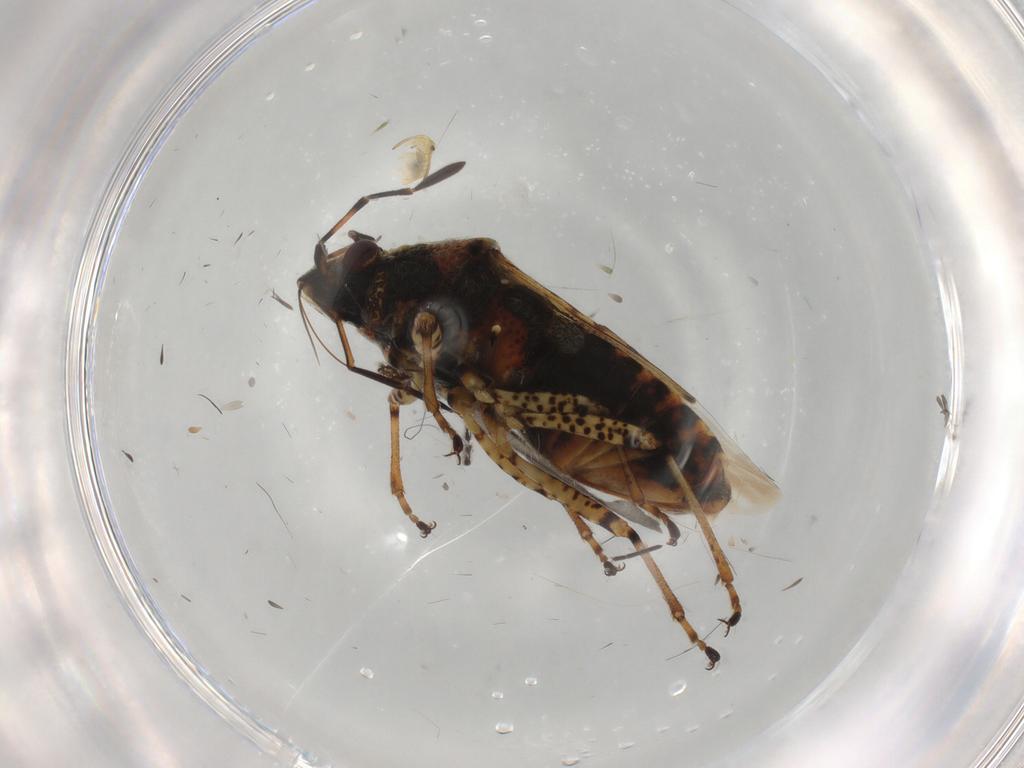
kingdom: Animalia
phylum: Arthropoda
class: Insecta
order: Hemiptera
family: Lygaeidae
